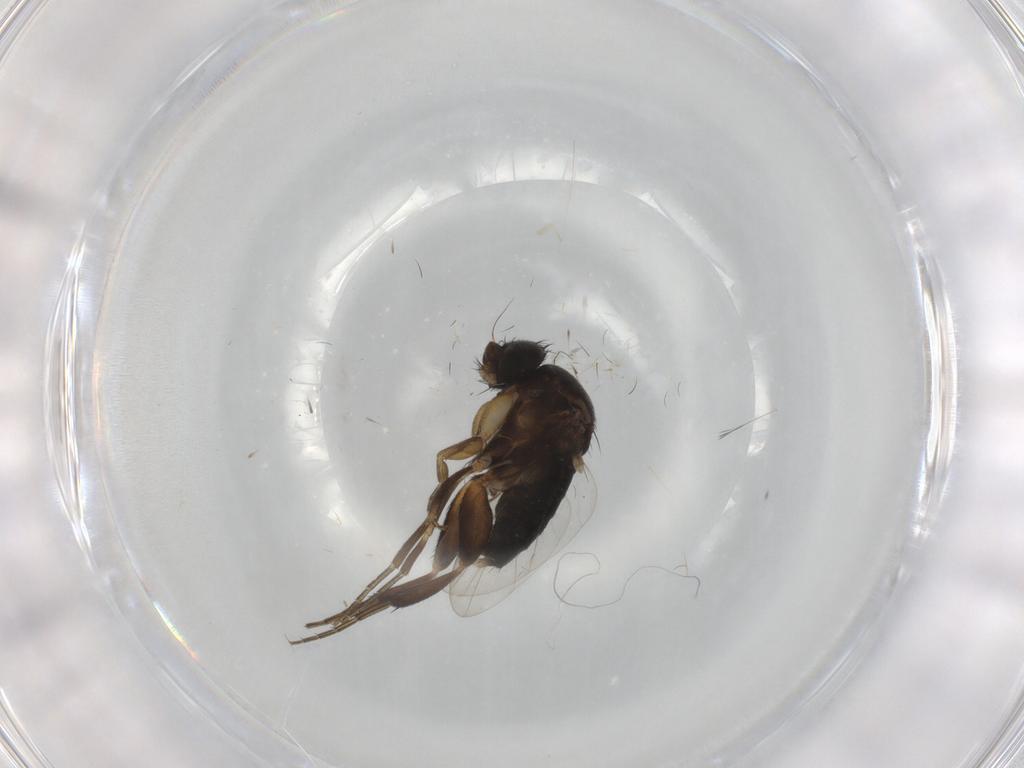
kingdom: Animalia
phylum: Arthropoda
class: Insecta
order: Diptera
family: Phoridae
